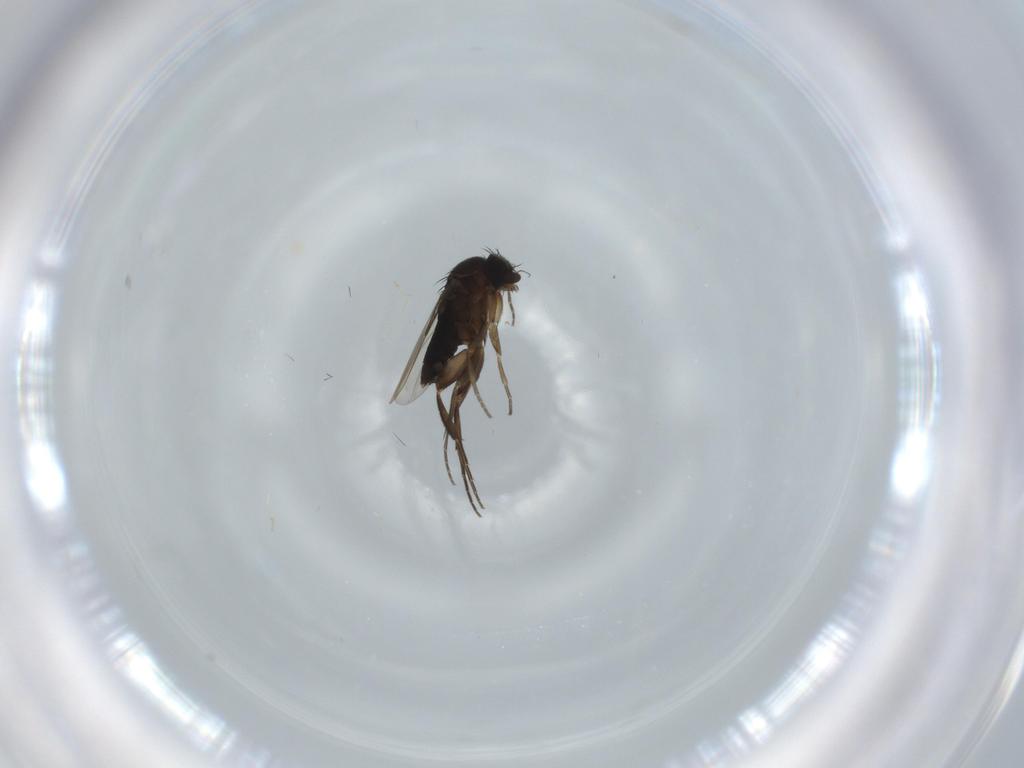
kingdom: Animalia
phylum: Arthropoda
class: Insecta
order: Diptera
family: Phoridae
